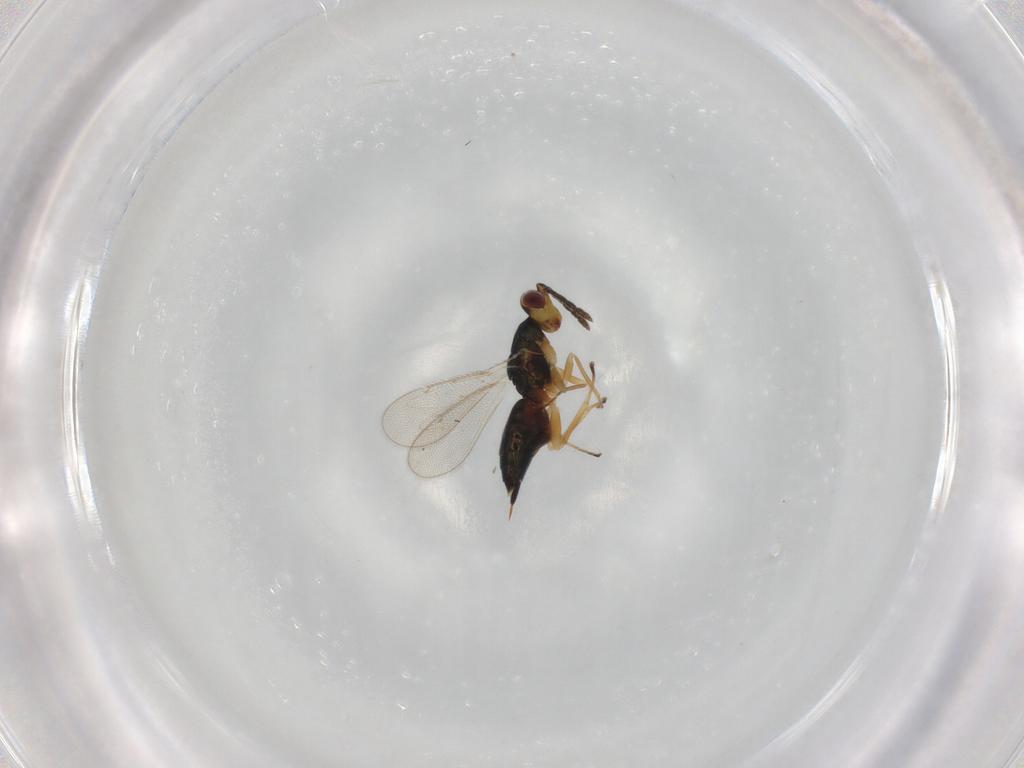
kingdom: Animalia
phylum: Arthropoda
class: Insecta
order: Hymenoptera
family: Eulophidae
